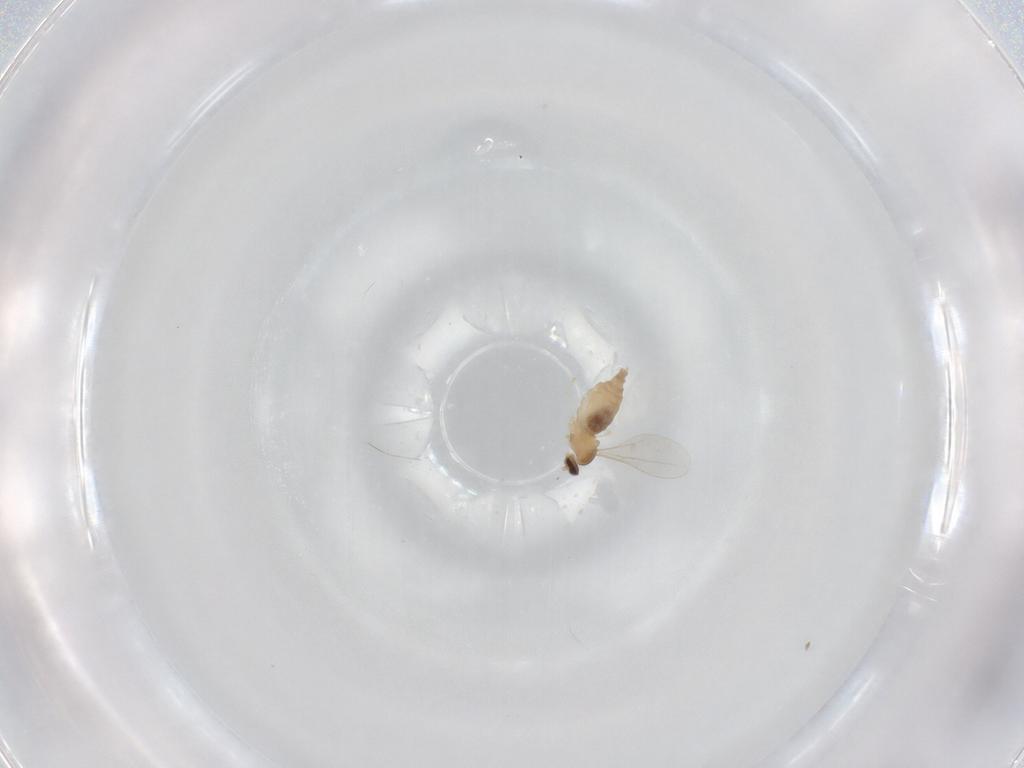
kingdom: Animalia
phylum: Arthropoda
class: Insecta
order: Diptera
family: Cecidomyiidae
